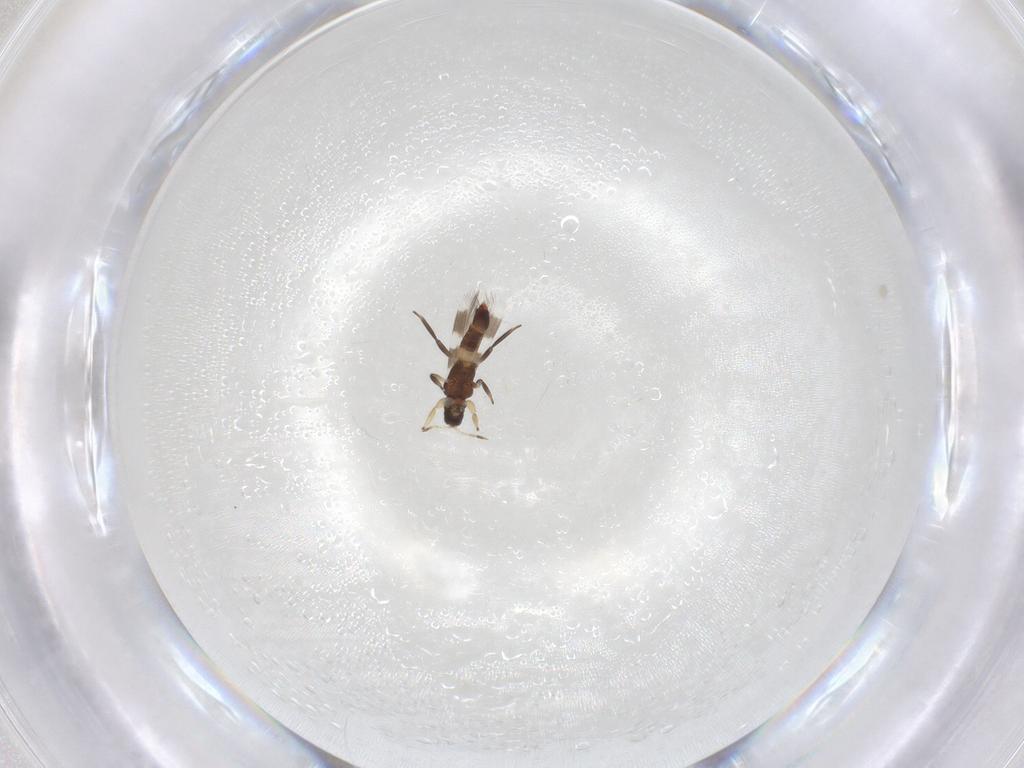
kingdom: Animalia
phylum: Arthropoda
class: Insecta
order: Thysanoptera
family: Aeolothripidae
